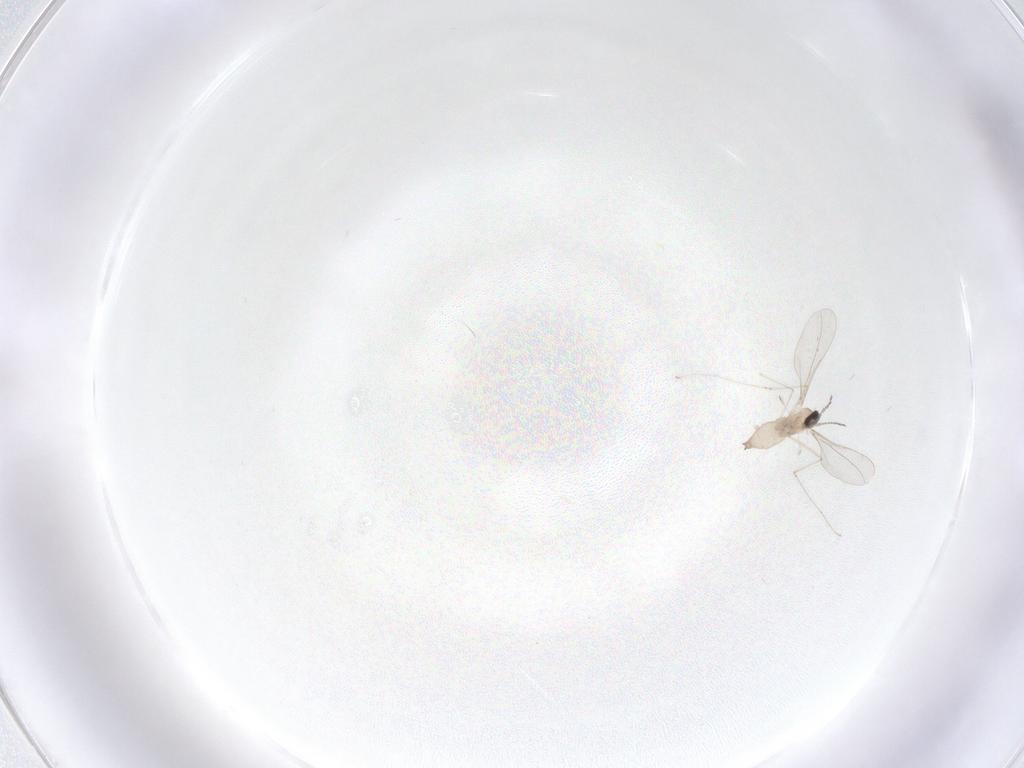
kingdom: Animalia
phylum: Arthropoda
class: Insecta
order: Diptera
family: Cecidomyiidae
